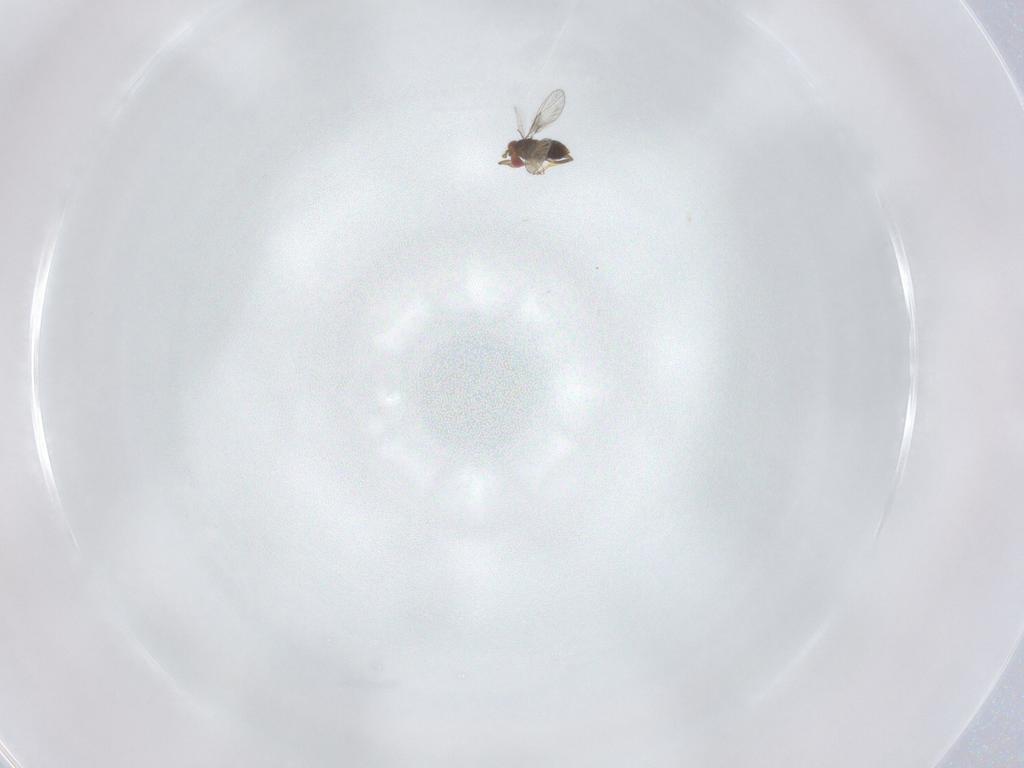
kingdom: Animalia
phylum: Arthropoda
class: Insecta
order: Hymenoptera
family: Trichogrammatidae
